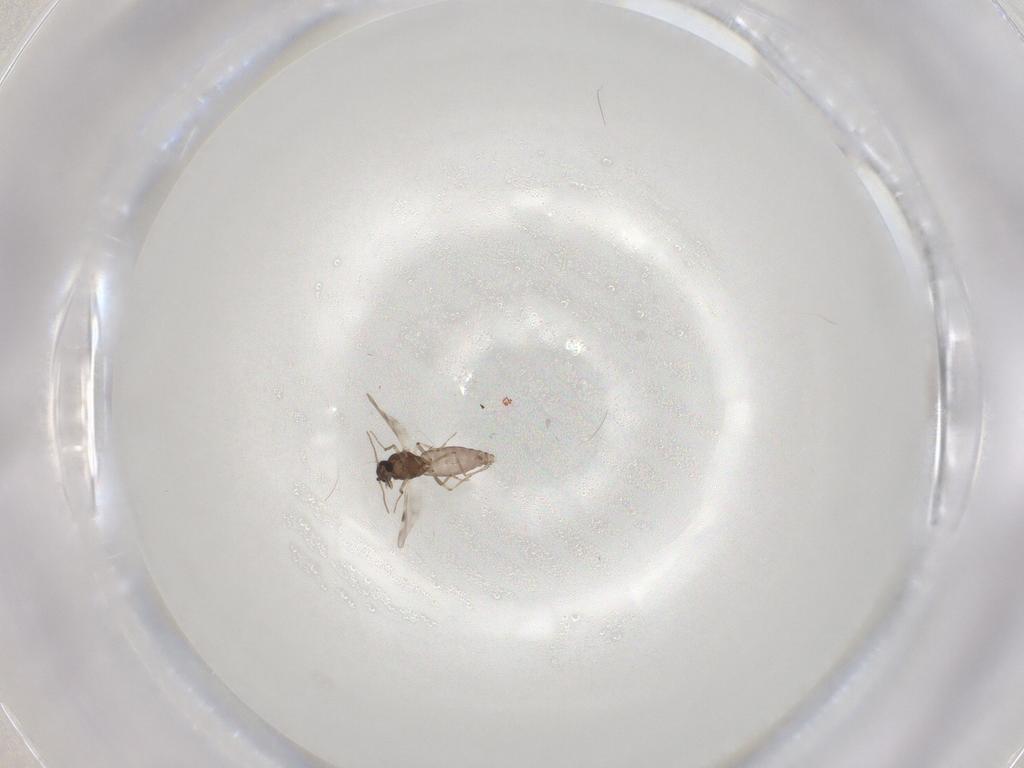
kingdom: Animalia
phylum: Arthropoda
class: Insecta
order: Diptera
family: Ceratopogonidae
